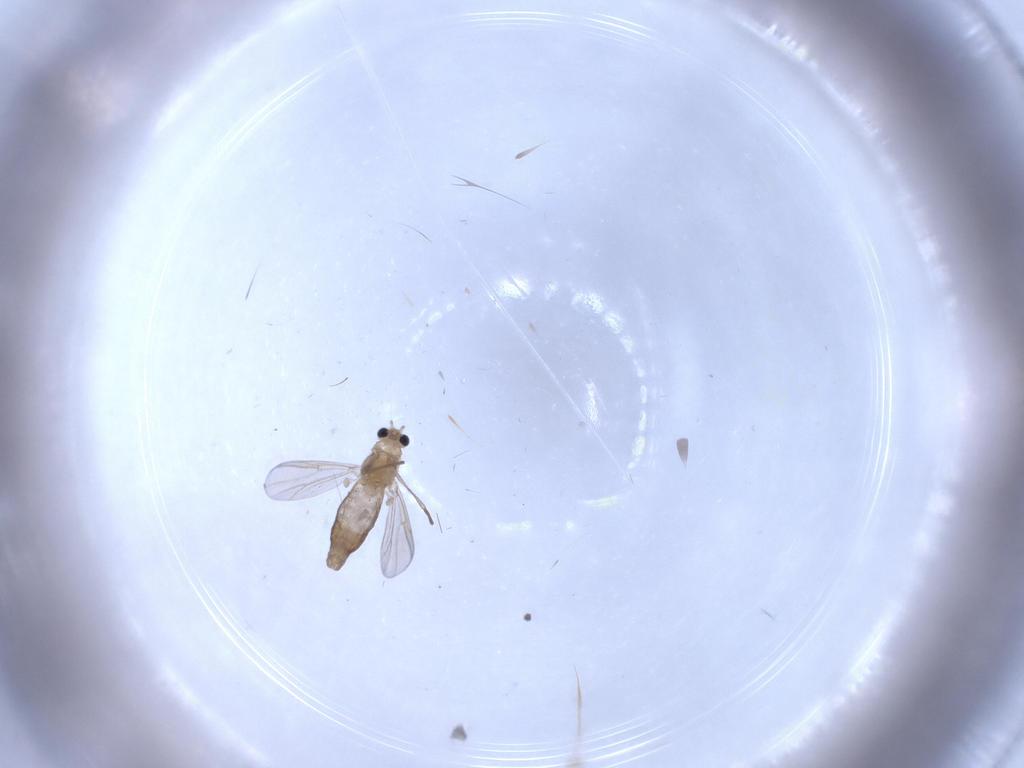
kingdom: Animalia
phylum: Arthropoda
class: Insecta
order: Diptera
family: Chironomidae
